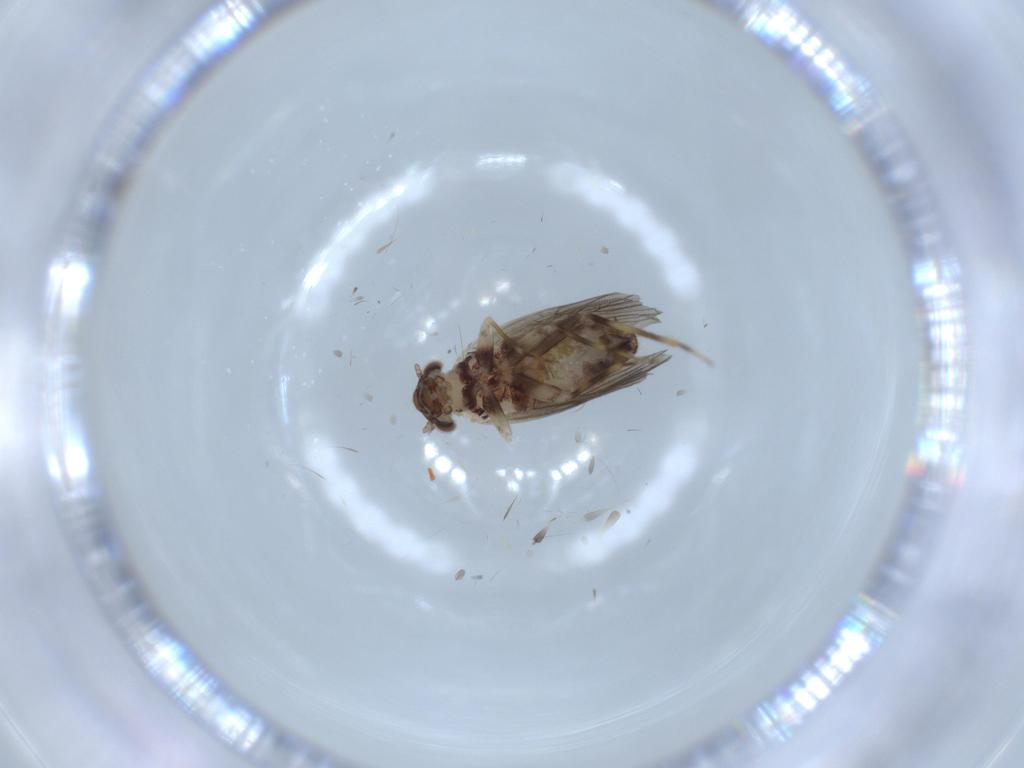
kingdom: Animalia
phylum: Arthropoda
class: Insecta
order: Psocodea
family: Lepidopsocidae
